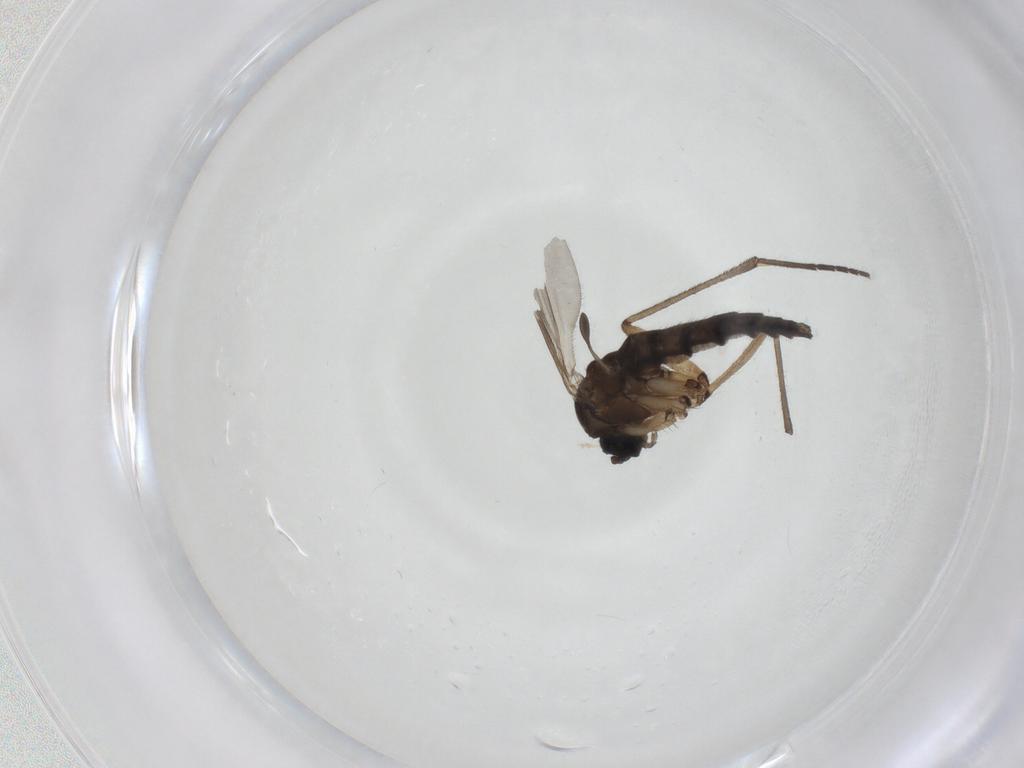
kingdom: Animalia
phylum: Arthropoda
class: Insecta
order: Diptera
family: Sciaridae
